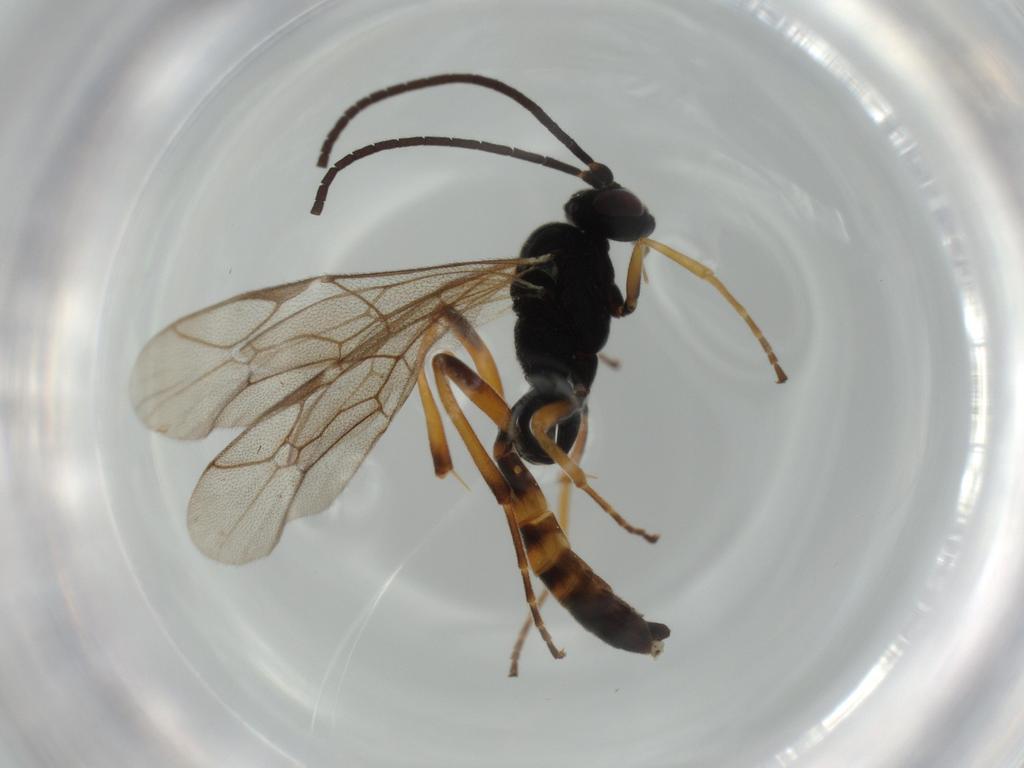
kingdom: Animalia
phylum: Arthropoda
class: Insecta
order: Hymenoptera
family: Ichneumonidae
